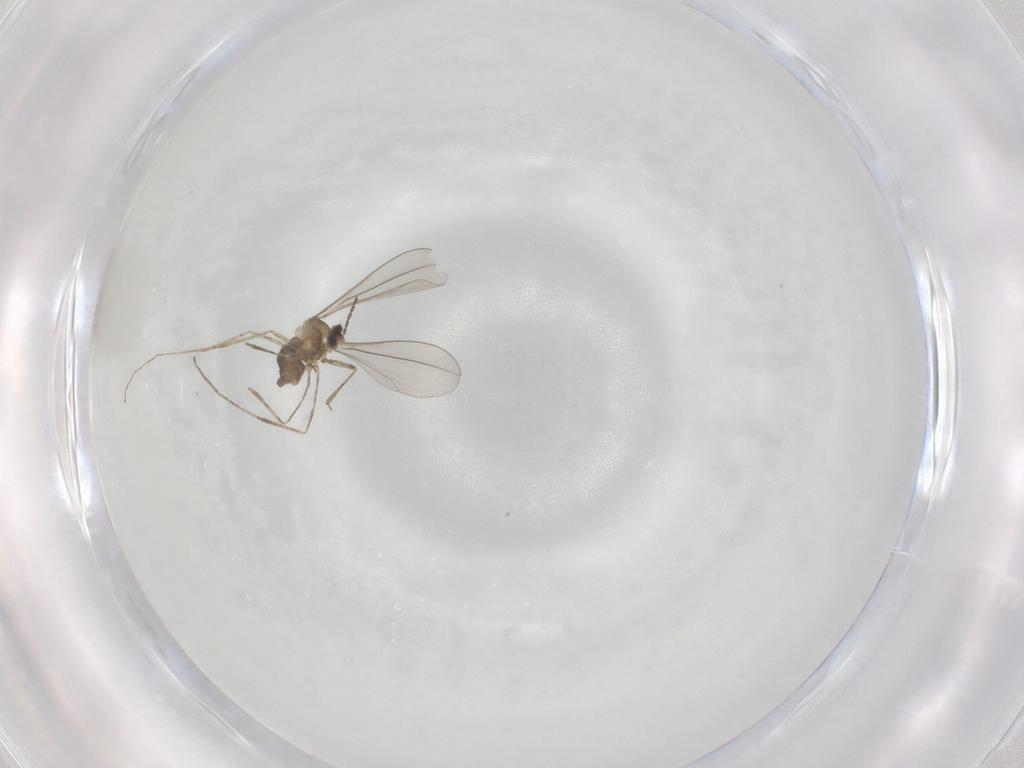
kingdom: Animalia
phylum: Arthropoda
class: Insecta
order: Diptera
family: Cecidomyiidae
